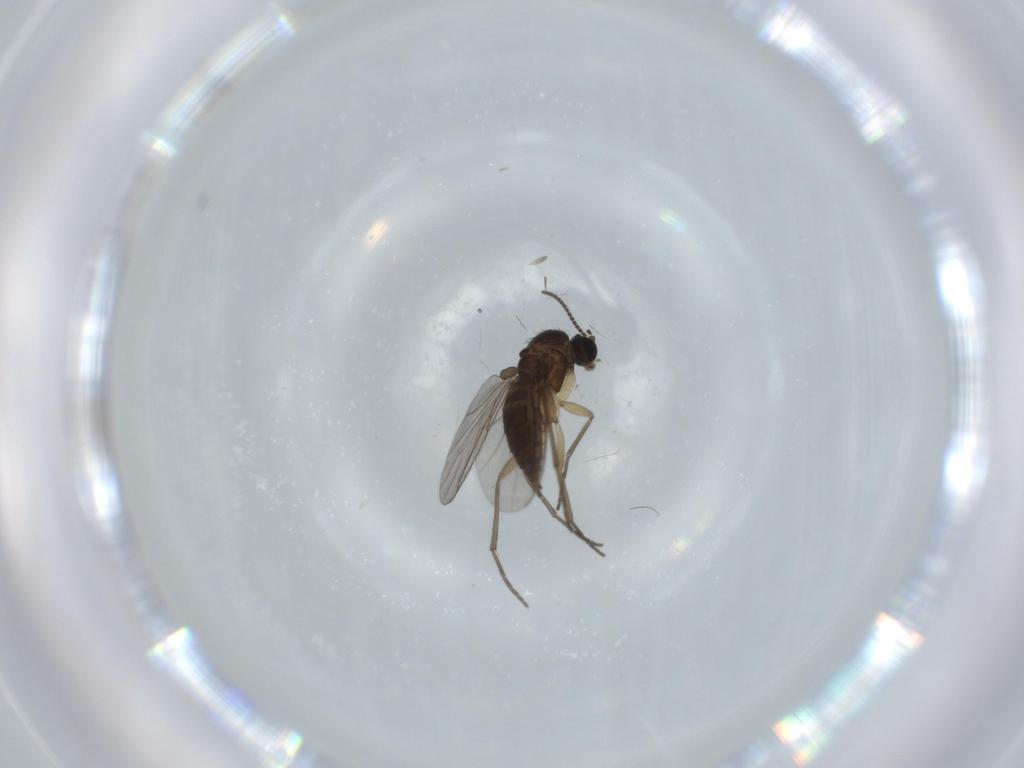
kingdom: Animalia
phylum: Arthropoda
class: Insecta
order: Diptera
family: Sciaridae
